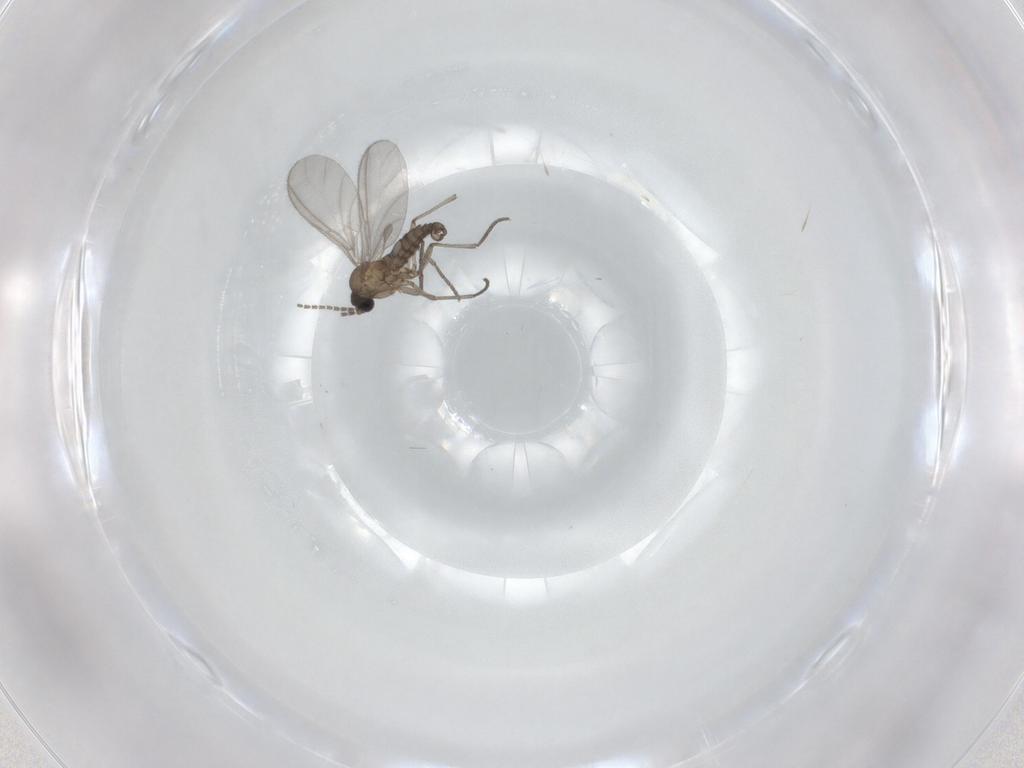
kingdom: Animalia
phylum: Arthropoda
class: Insecta
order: Diptera
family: Sciaridae
